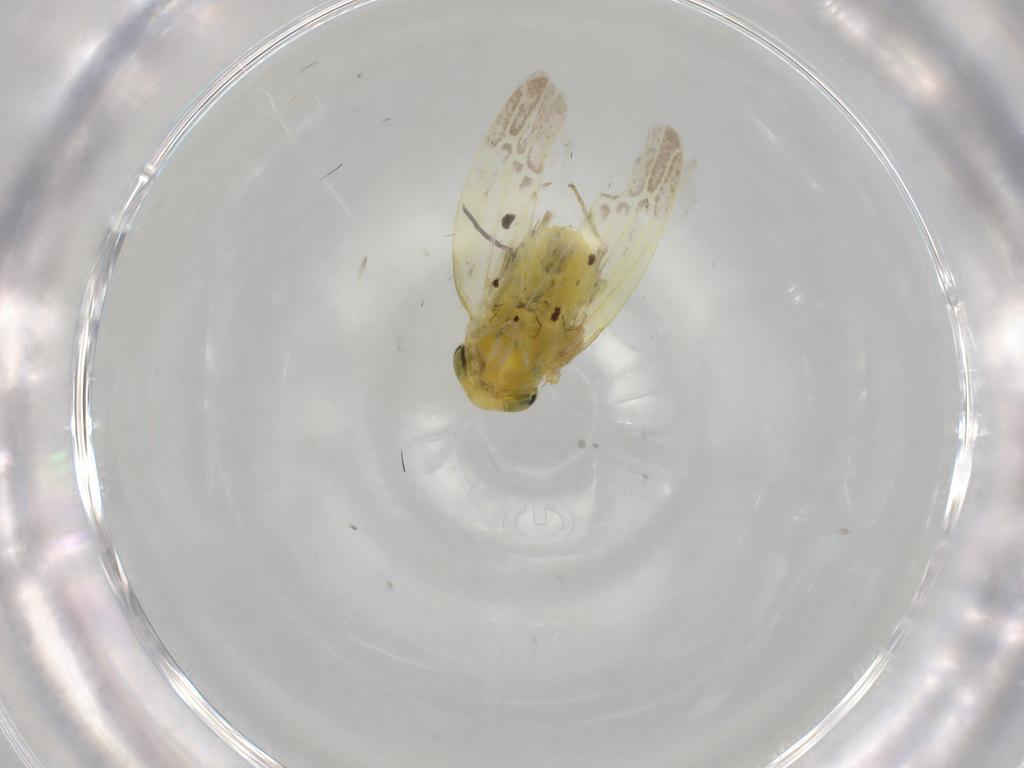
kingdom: Animalia
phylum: Arthropoda
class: Insecta
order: Hemiptera
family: Cicadellidae
